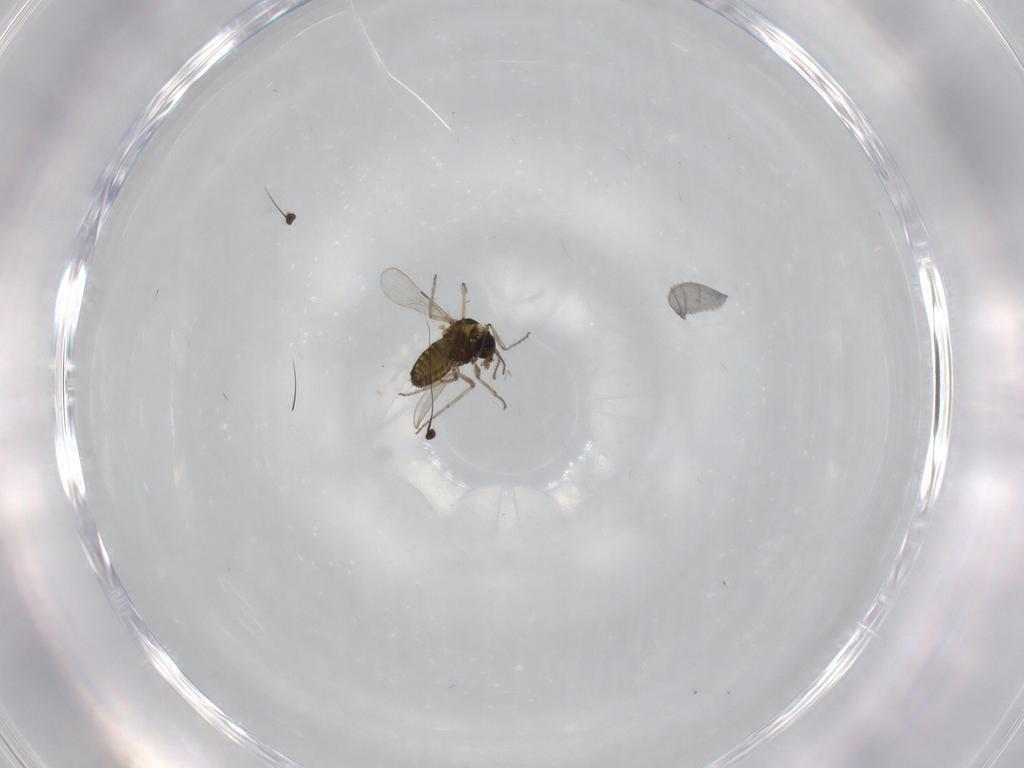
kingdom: Animalia
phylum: Arthropoda
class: Insecta
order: Diptera
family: Ceratopogonidae
